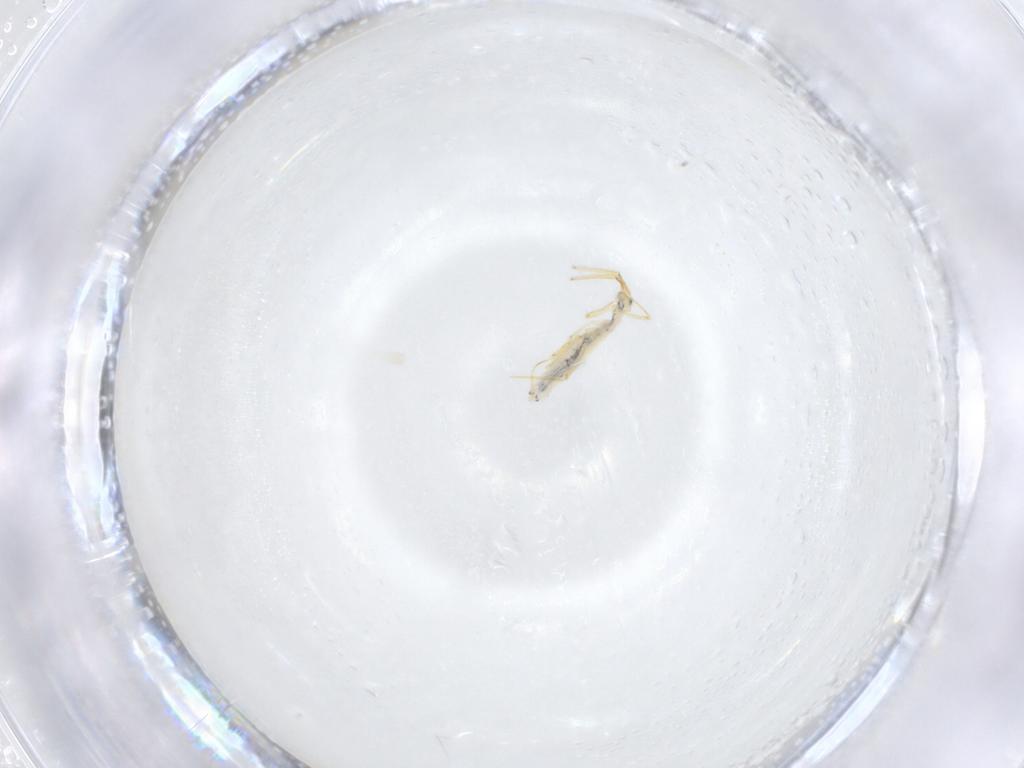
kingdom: Animalia
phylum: Arthropoda
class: Collembola
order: Entomobryomorpha
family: Entomobryidae
